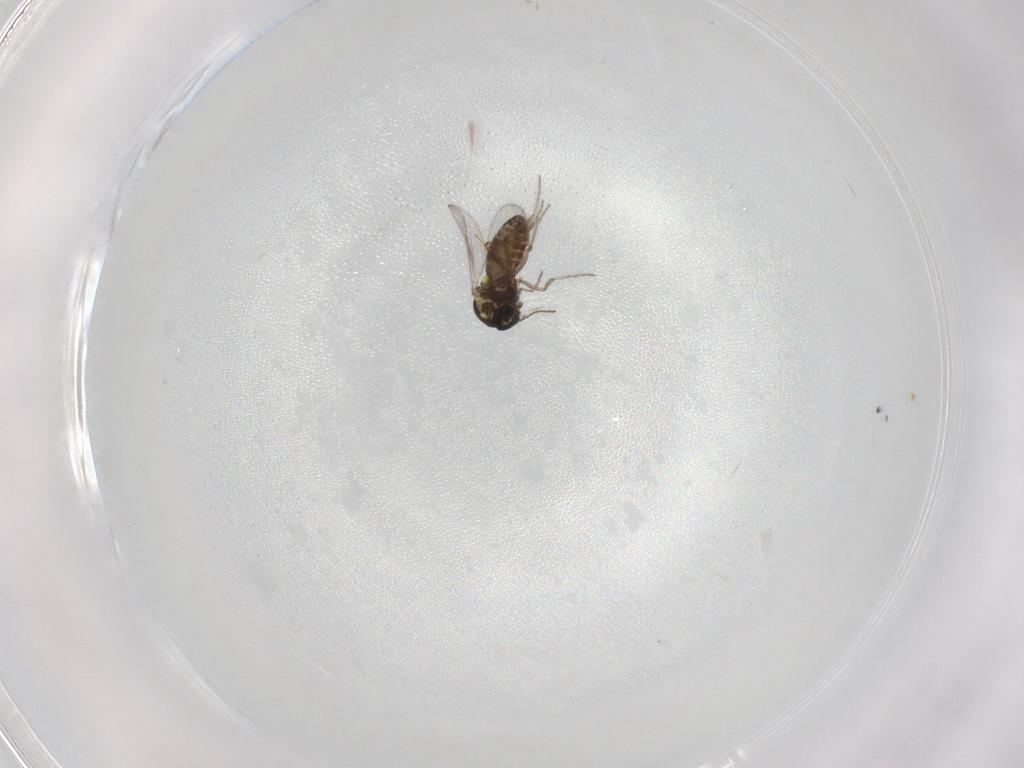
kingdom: Animalia
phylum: Arthropoda
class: Insecta
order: Diptera
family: Ceratopogonidae
